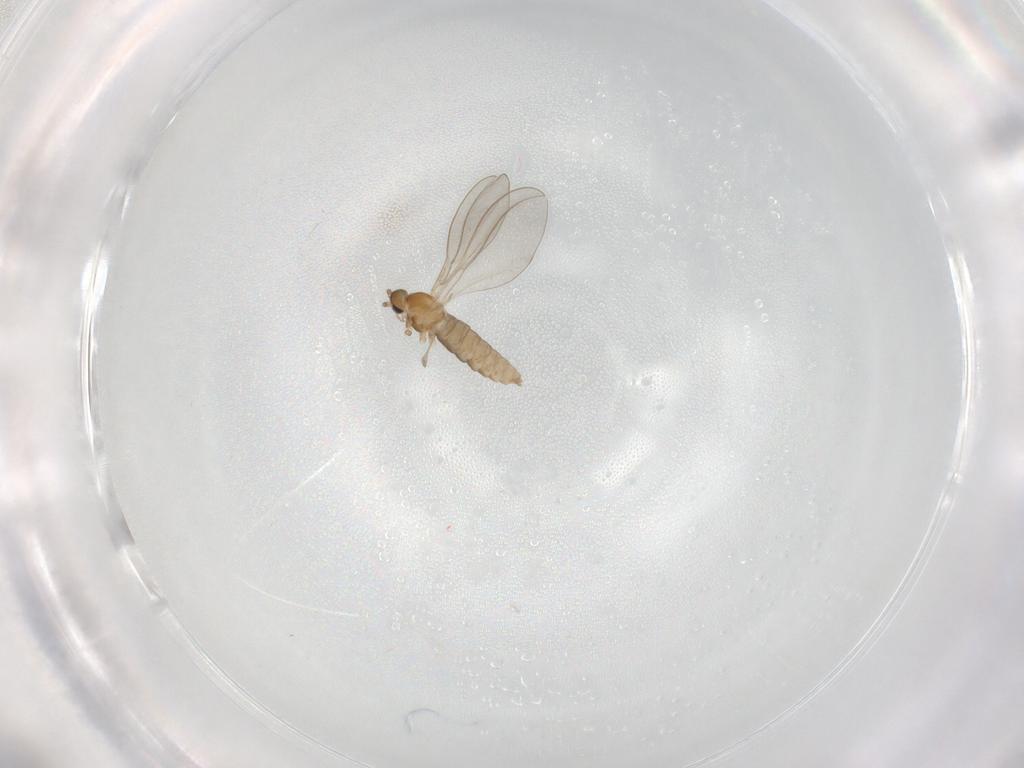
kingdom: Animalia
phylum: Arthropoda
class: Insecta
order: Diptera
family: Cecidomyiidae
